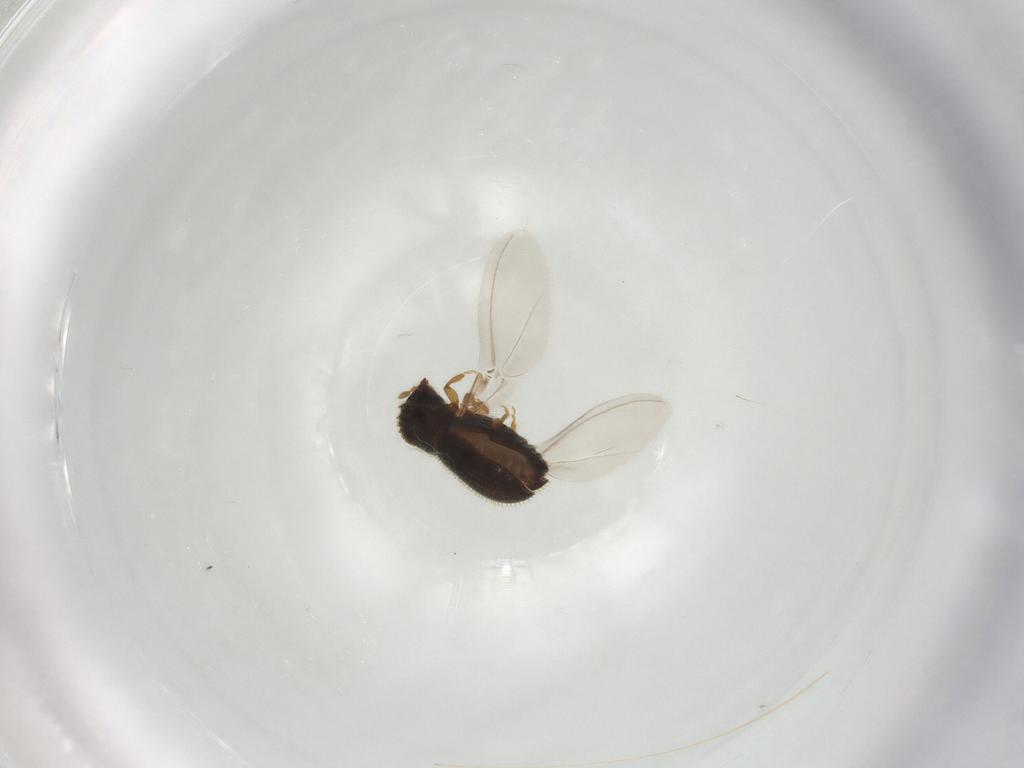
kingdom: Animalia
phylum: Arthropoda
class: Insecta
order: Coleoptera
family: Curculionidae
